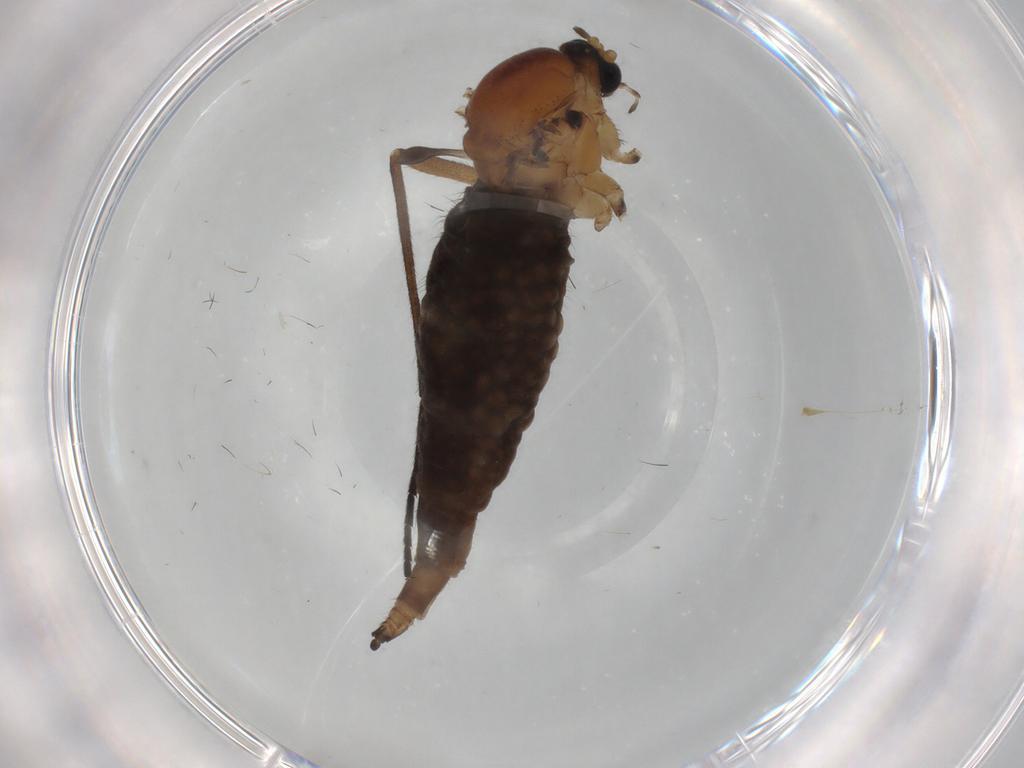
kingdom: Animalia
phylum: Arthropoda
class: Insecta
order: Diptera
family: Sciaridae
